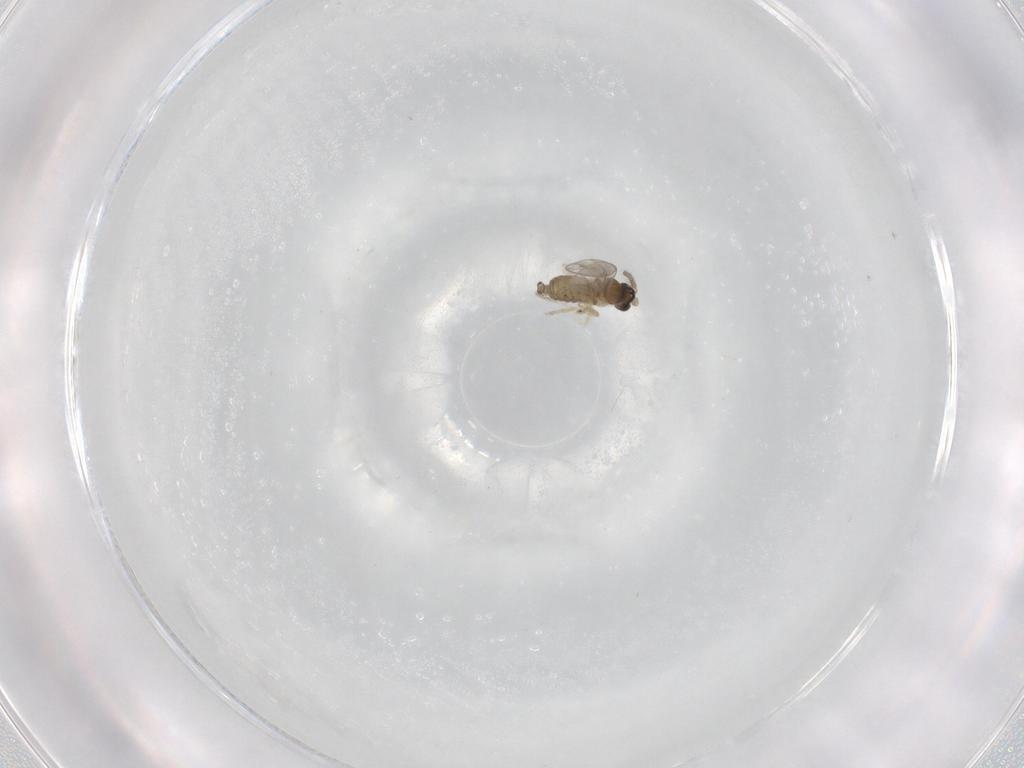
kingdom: Animalia
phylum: Arthropoda
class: Insecta
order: Diptera
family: Cecidomyiidae
